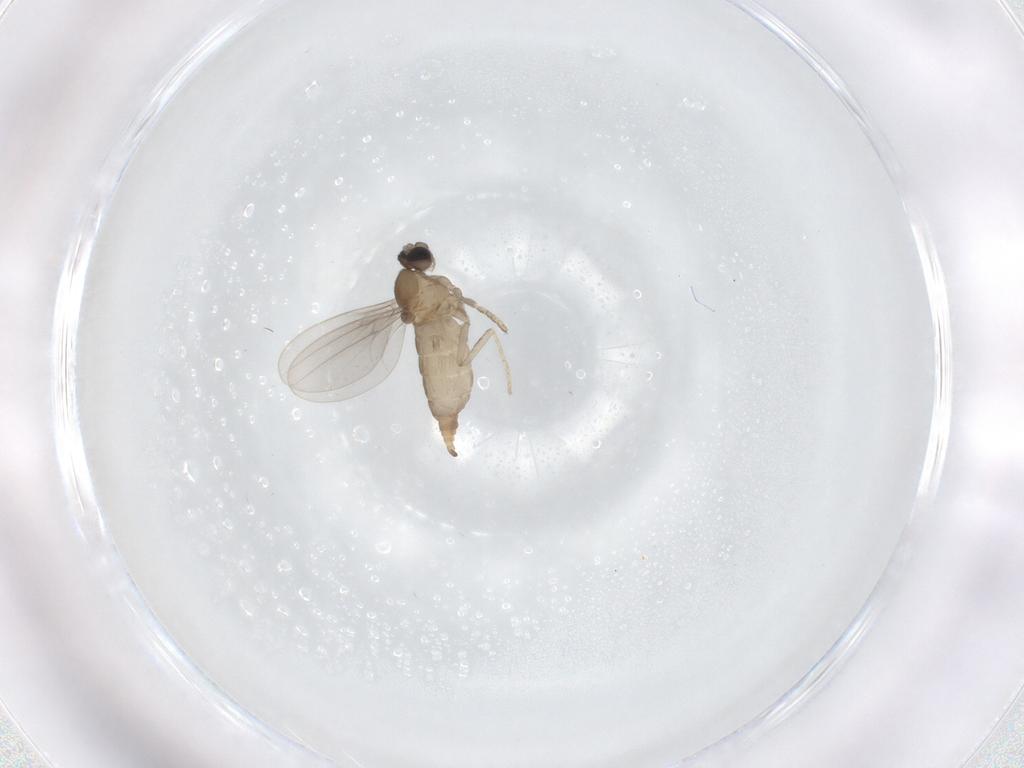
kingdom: Animalia
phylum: Arthropoda
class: Insecta
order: Diptera
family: Cecidomyiidae
